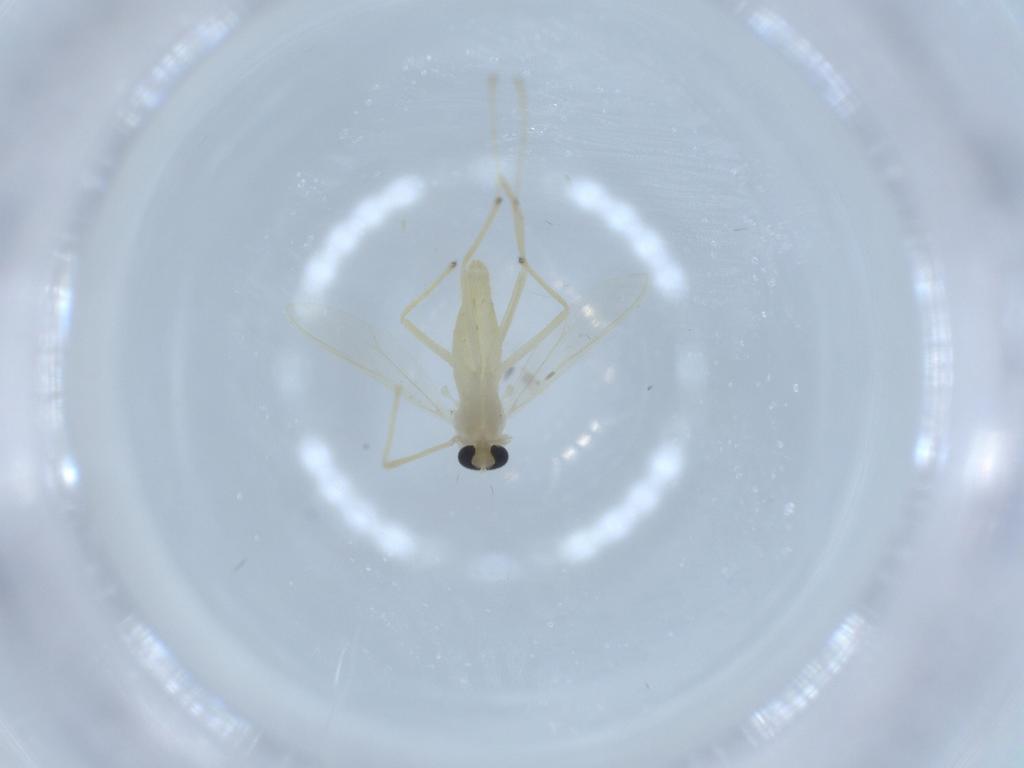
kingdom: Animalia
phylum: Arthropoda
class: Insecta
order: Diptera
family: Chironomidae
